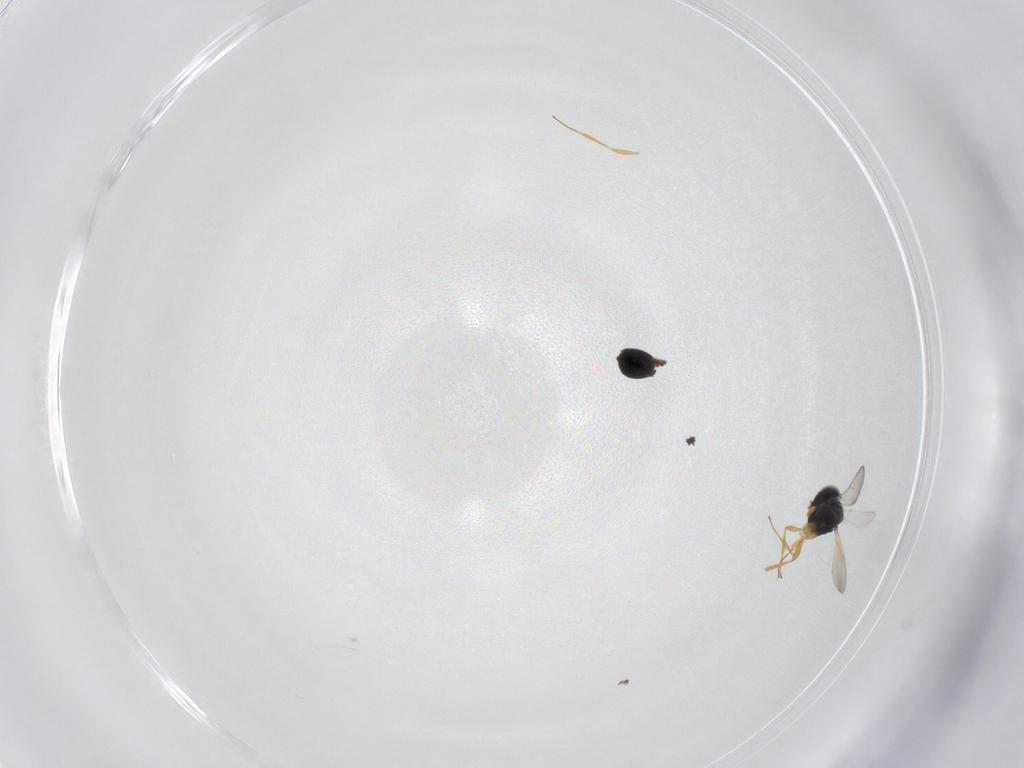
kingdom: Animalia
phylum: Arthropoda
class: Insecta
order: Hymenoptera
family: Scelionidae
